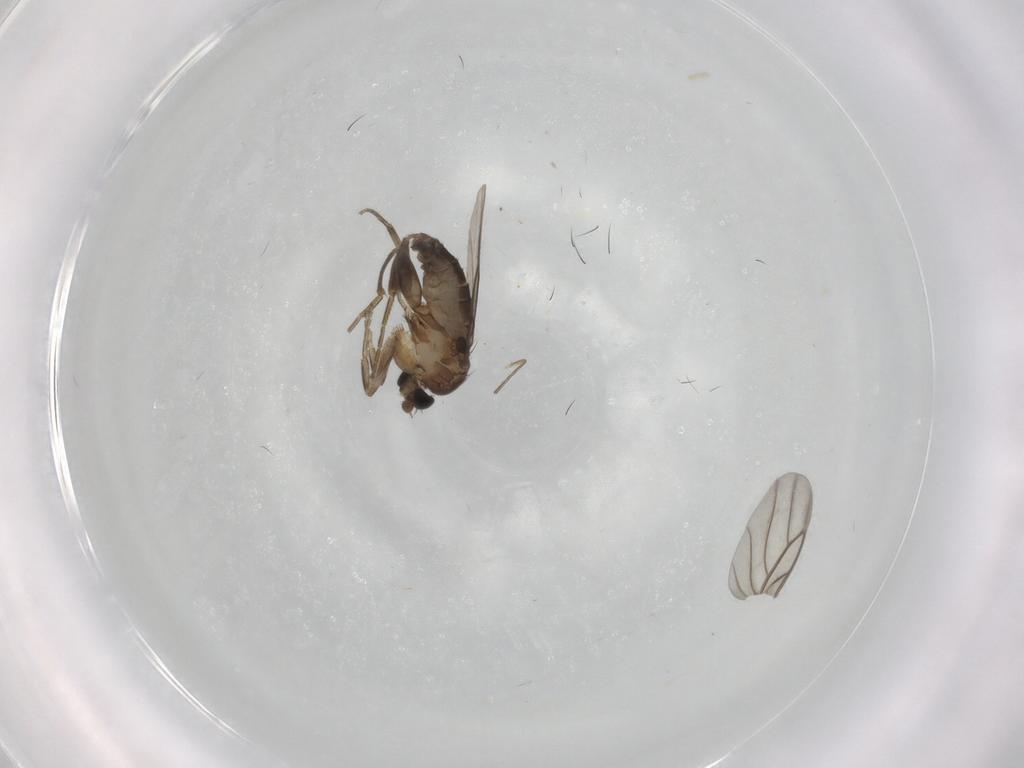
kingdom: Animalia
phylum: Arthropoda
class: Insecta
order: Diptera
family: Phoridae
